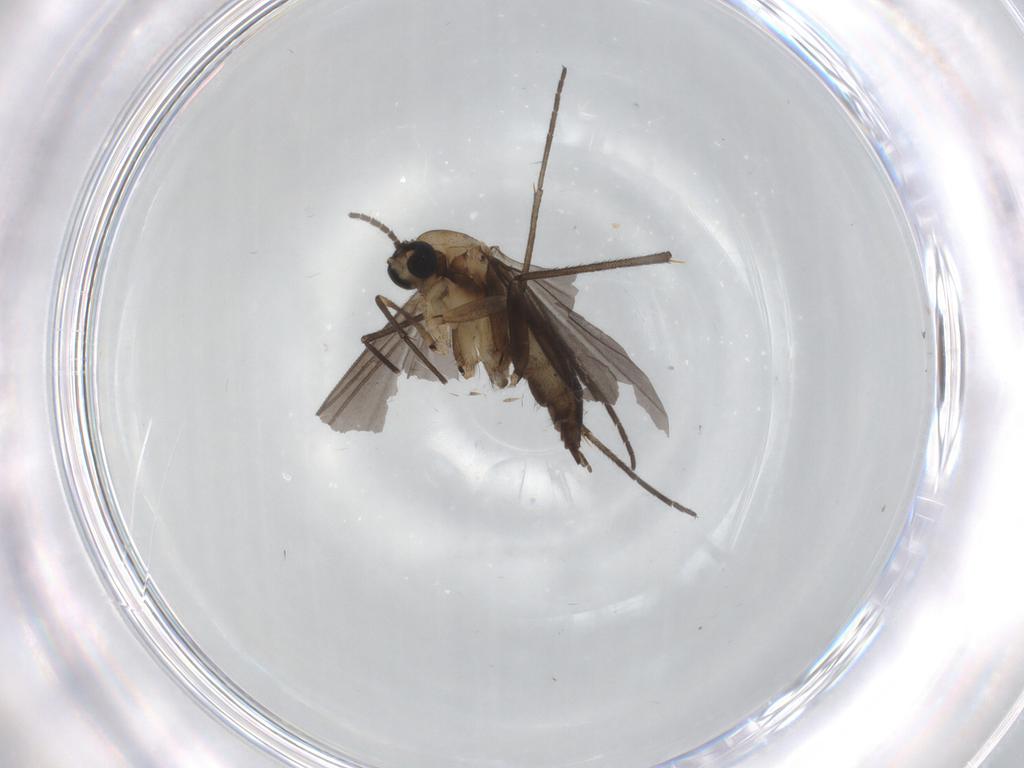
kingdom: Animalia
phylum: Arthropoda
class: Insecta
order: Diptera
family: Sciaridae
